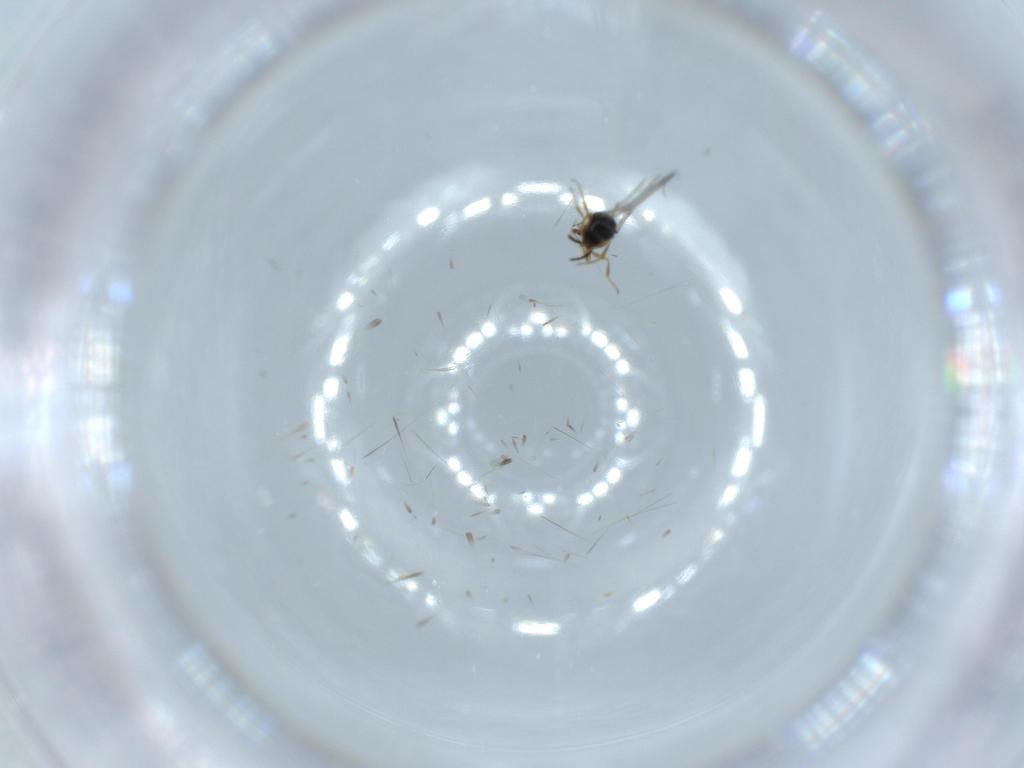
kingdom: Animalia
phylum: Arthropoda
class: Insecta
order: Hymenoptera
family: Scelionidae
